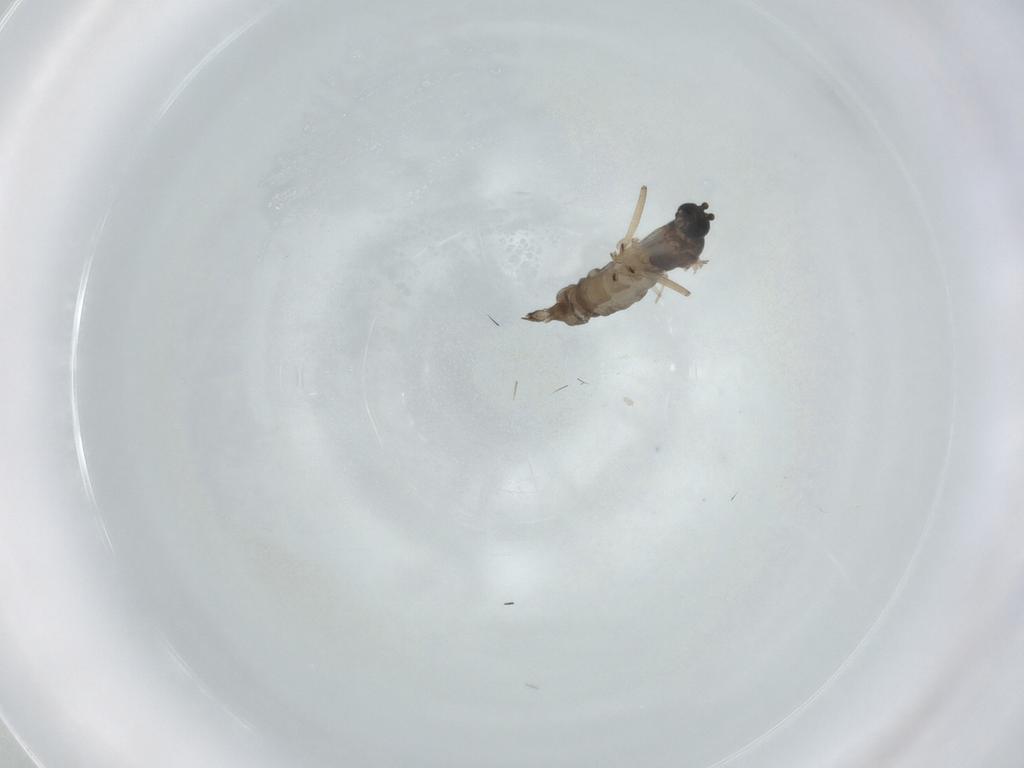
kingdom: Animalia
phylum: Arthropoda
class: Insecta
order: Diptera
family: Sciaridae
